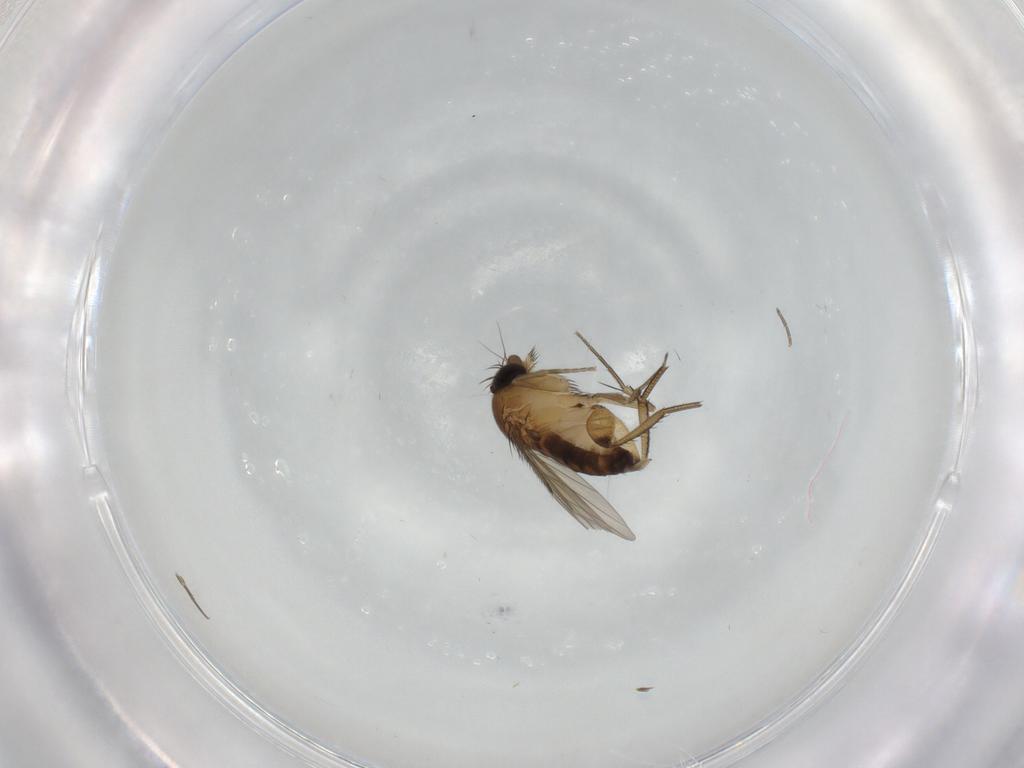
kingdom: Animalia
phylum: Arthropoda
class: Insecta
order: Diptera
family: Phoridae
